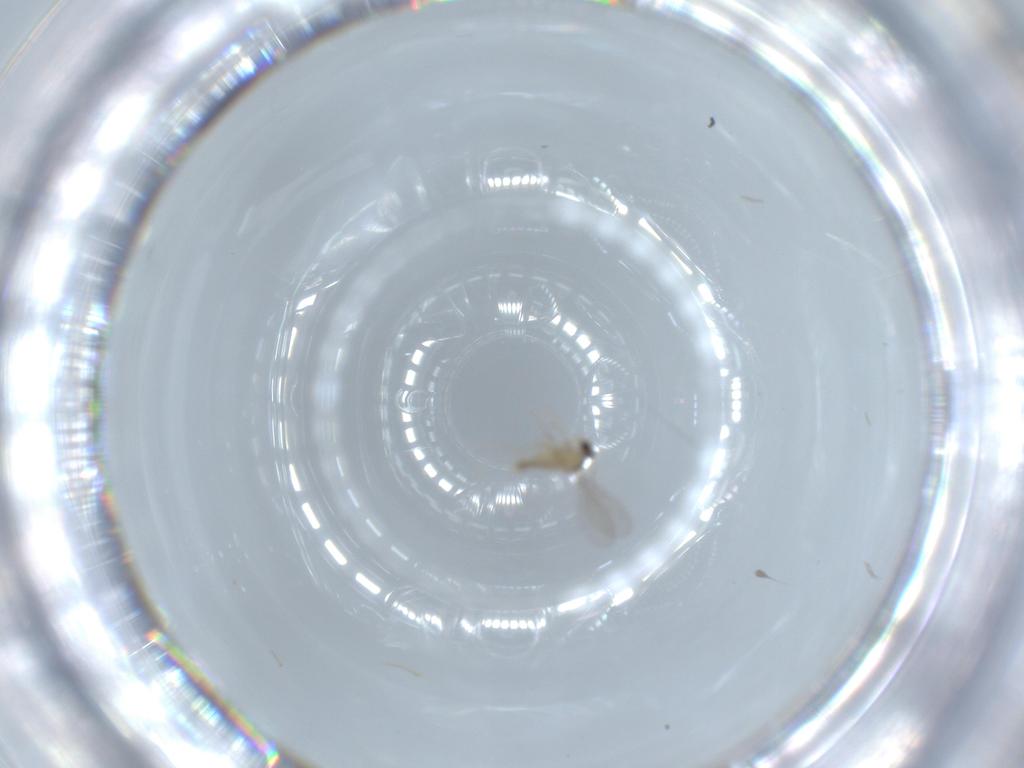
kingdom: Animalia
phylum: Arthropoda
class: Insecta
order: Diptera
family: Cecidomyiidae
